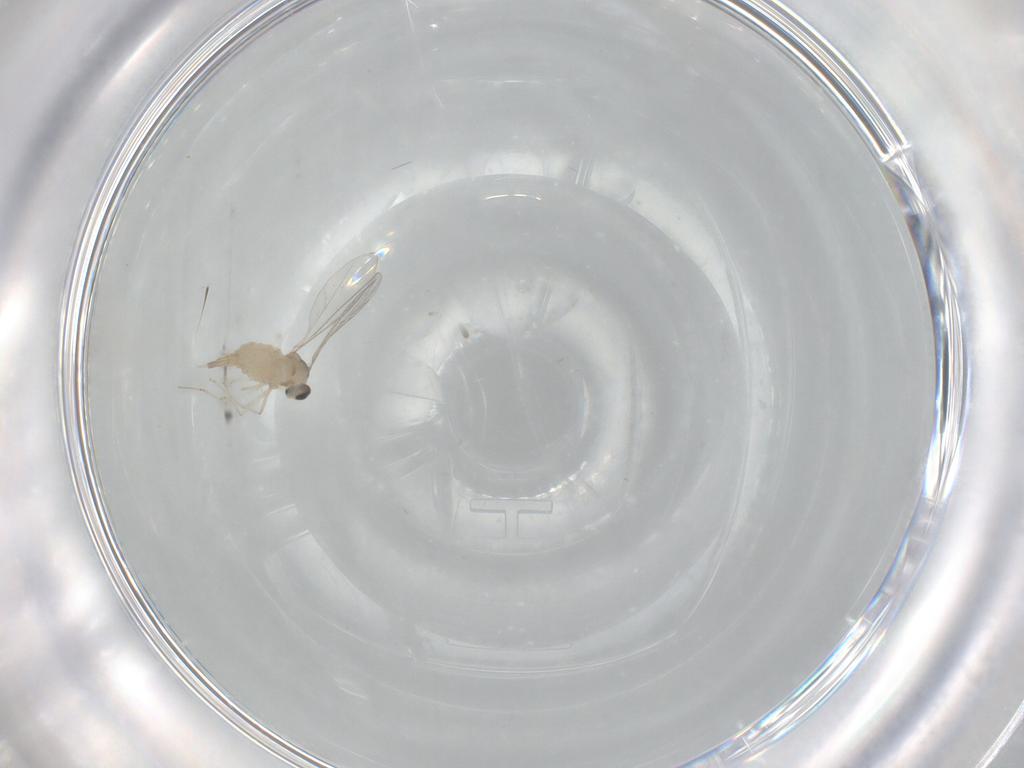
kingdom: Animalia
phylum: Arthropoda
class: Insecta
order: Diptera
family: Cecidomyiidae
